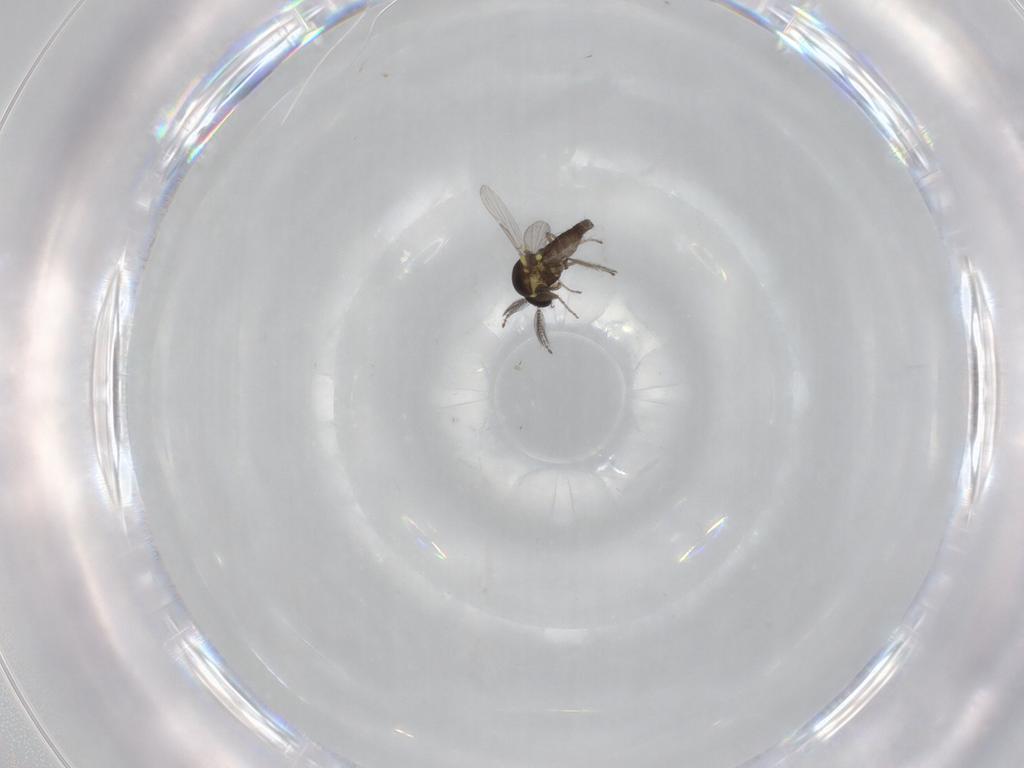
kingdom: Animalia
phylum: Arthropoda
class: Insecta
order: Diptera
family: Ceratopogonidae
